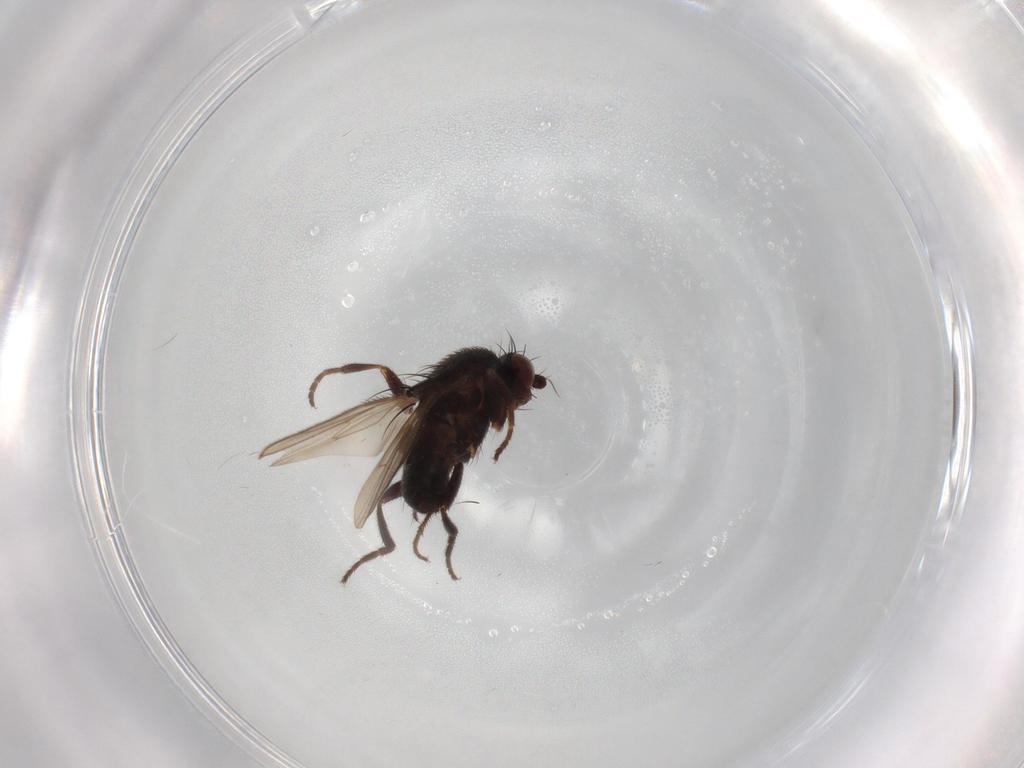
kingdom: Animalia
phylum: Arthropoda
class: Insecta
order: Diptera
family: Sphaeroceridae
